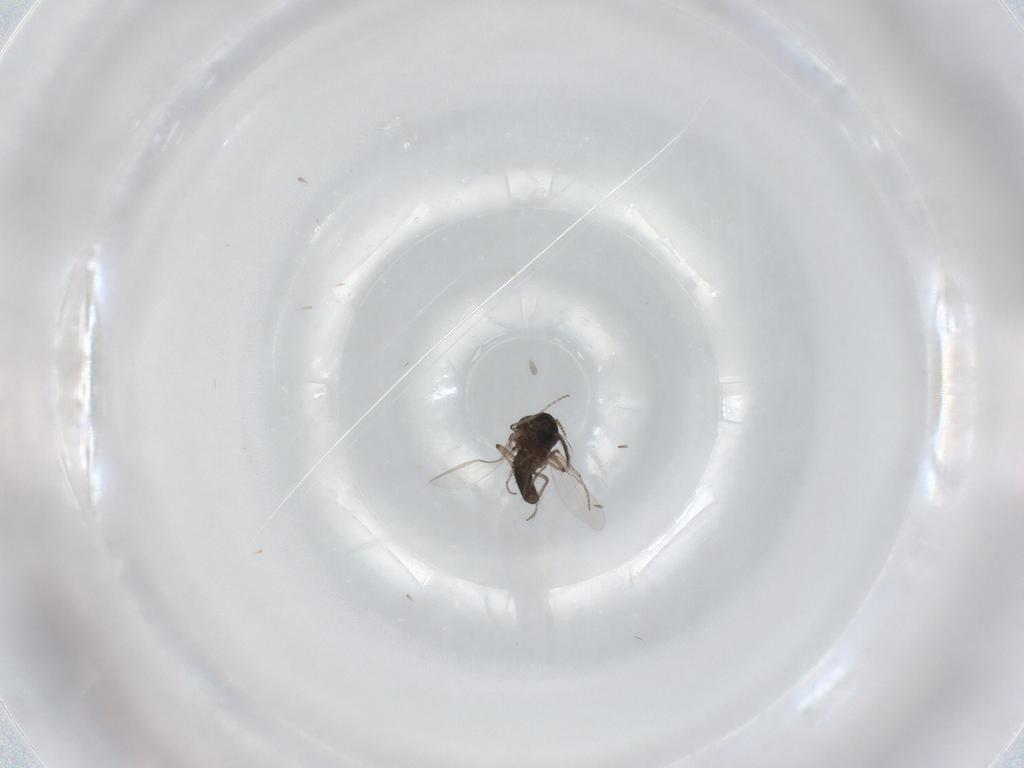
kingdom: Animalia
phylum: Arthropoda
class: Insecta
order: Diptera
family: Ceratopogonidae
